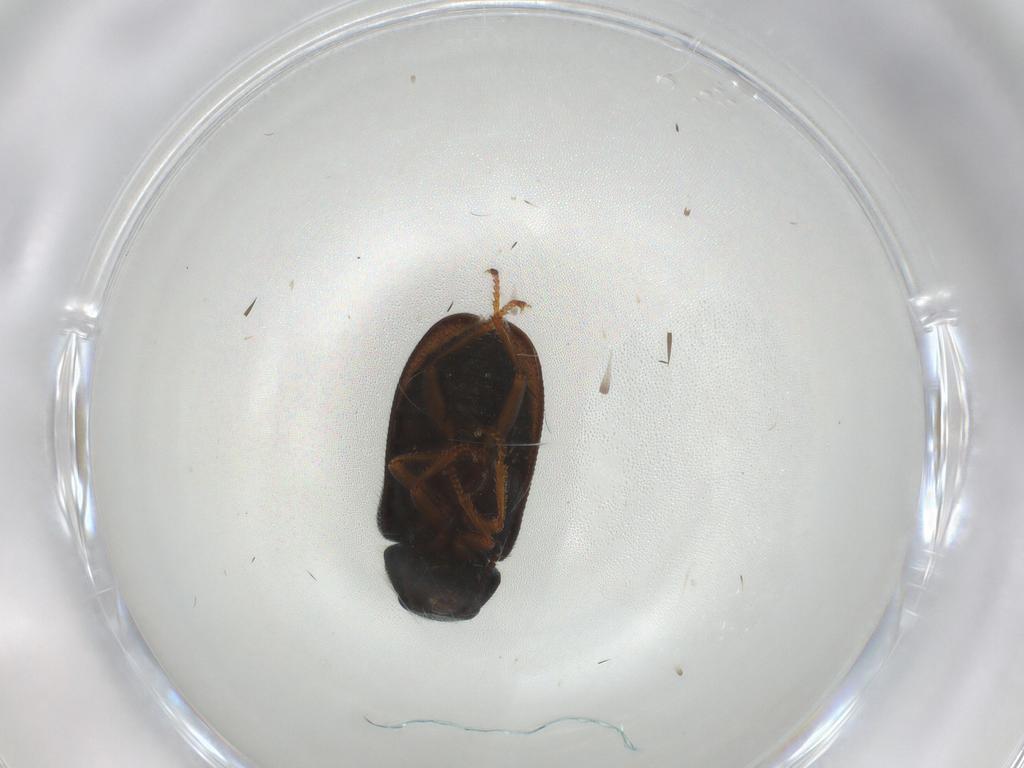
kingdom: Animalia
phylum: Arthropoda
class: Insecta
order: Coleoptera
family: Melyridae
